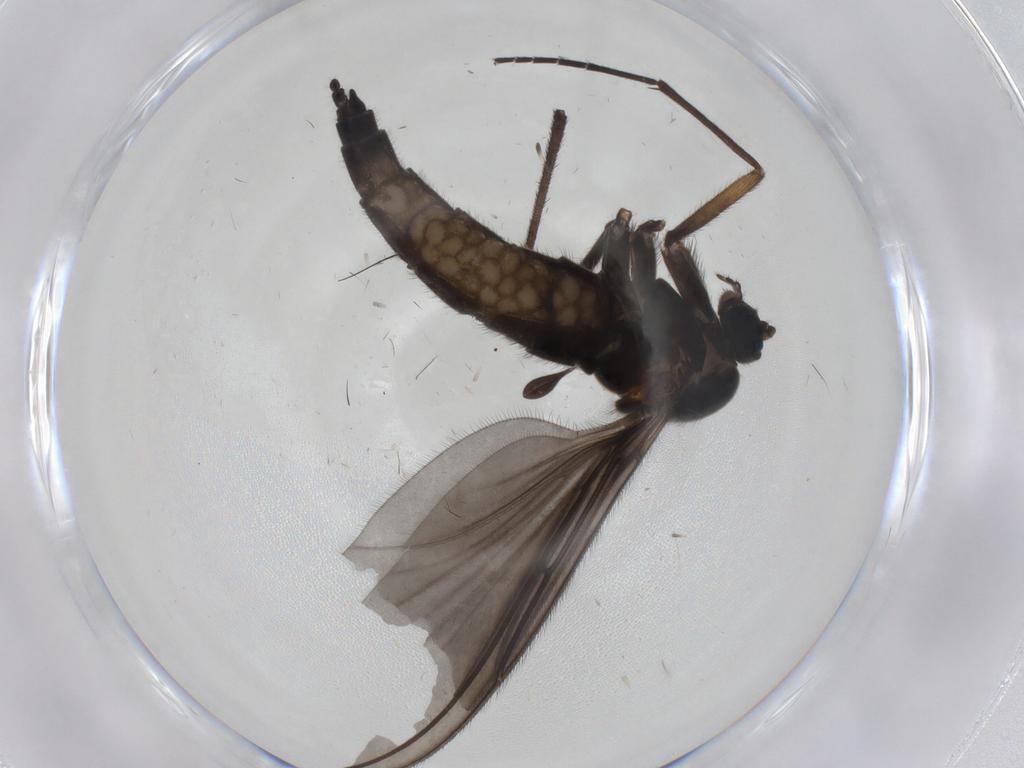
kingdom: Animalia
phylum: Arthropoda
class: Insecta
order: Diptera
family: Sciaridae
